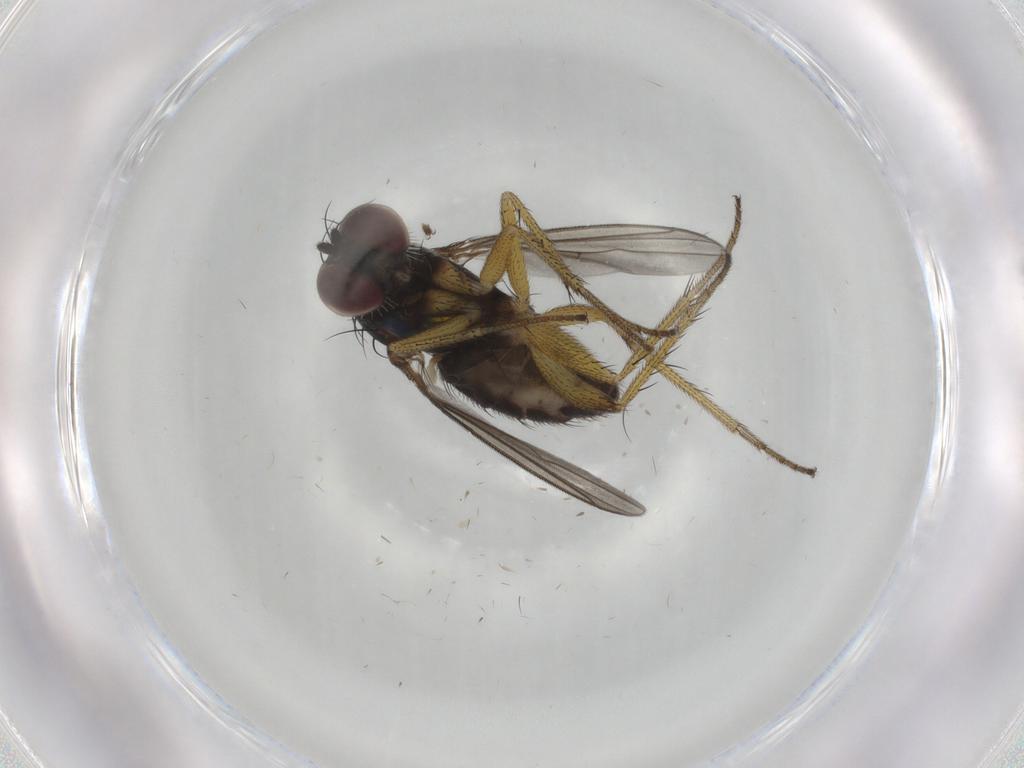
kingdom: Animalia
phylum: Arthropoda
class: Insecta
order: Diptera
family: Dolichopodidae
